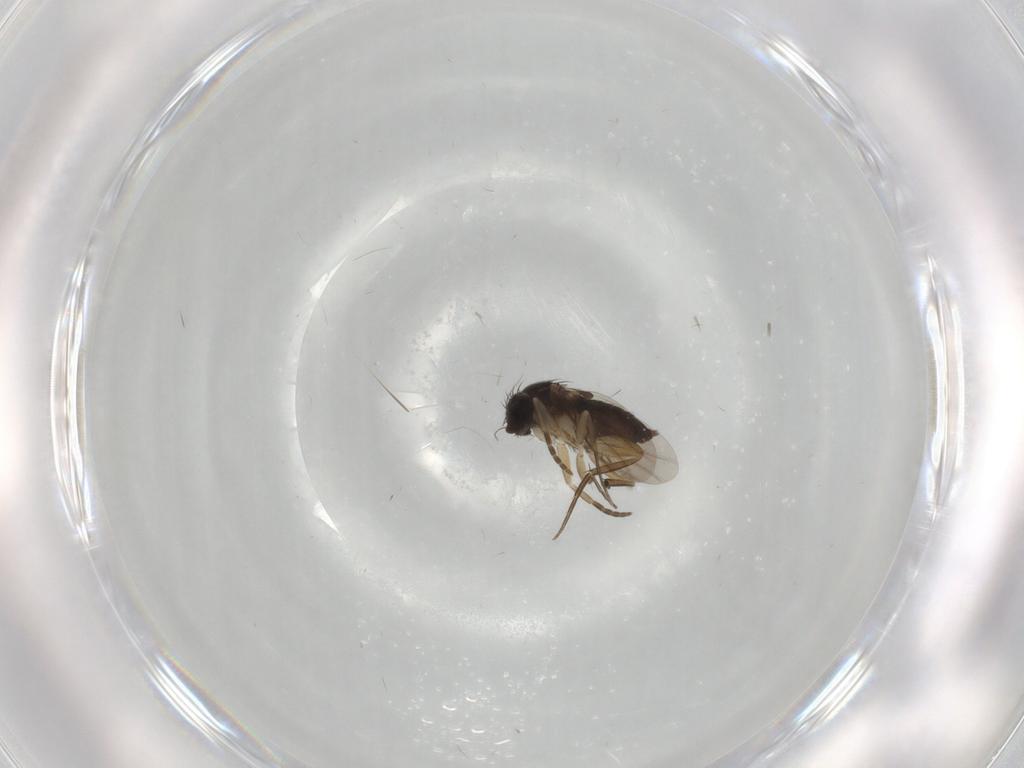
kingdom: Animalia
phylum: Arthropoda
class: Insecta
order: Diptera
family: Phoridae
